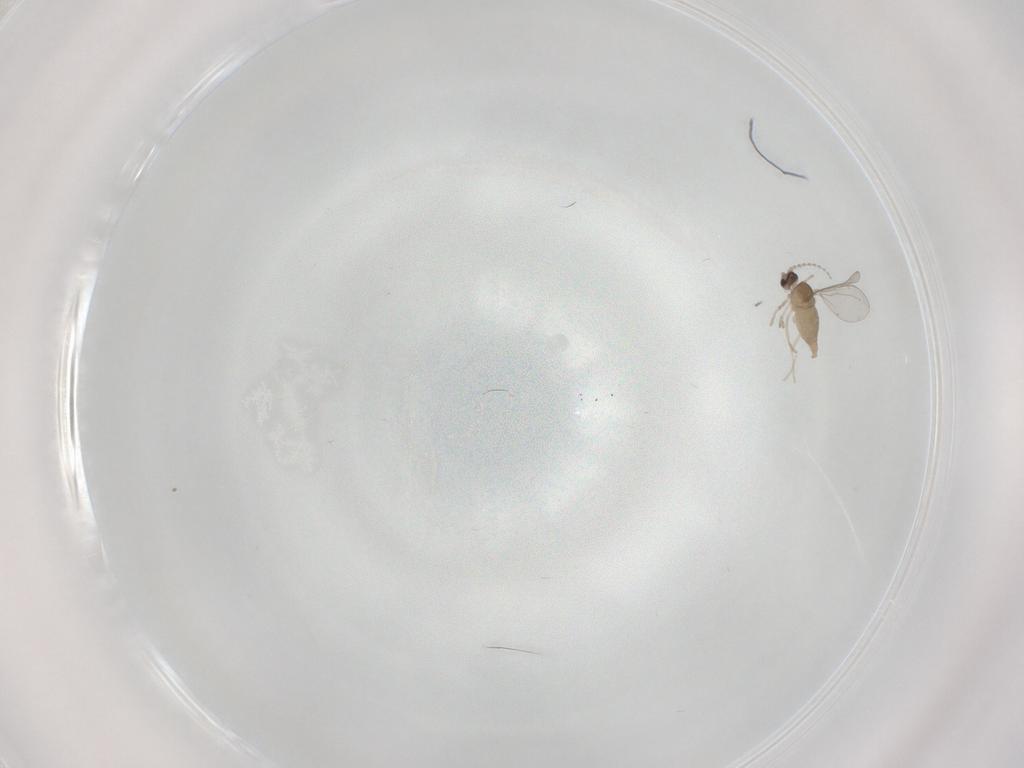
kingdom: Animalia
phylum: Arthropoda
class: Insecta
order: Diptera
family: Cecidomyiidae
